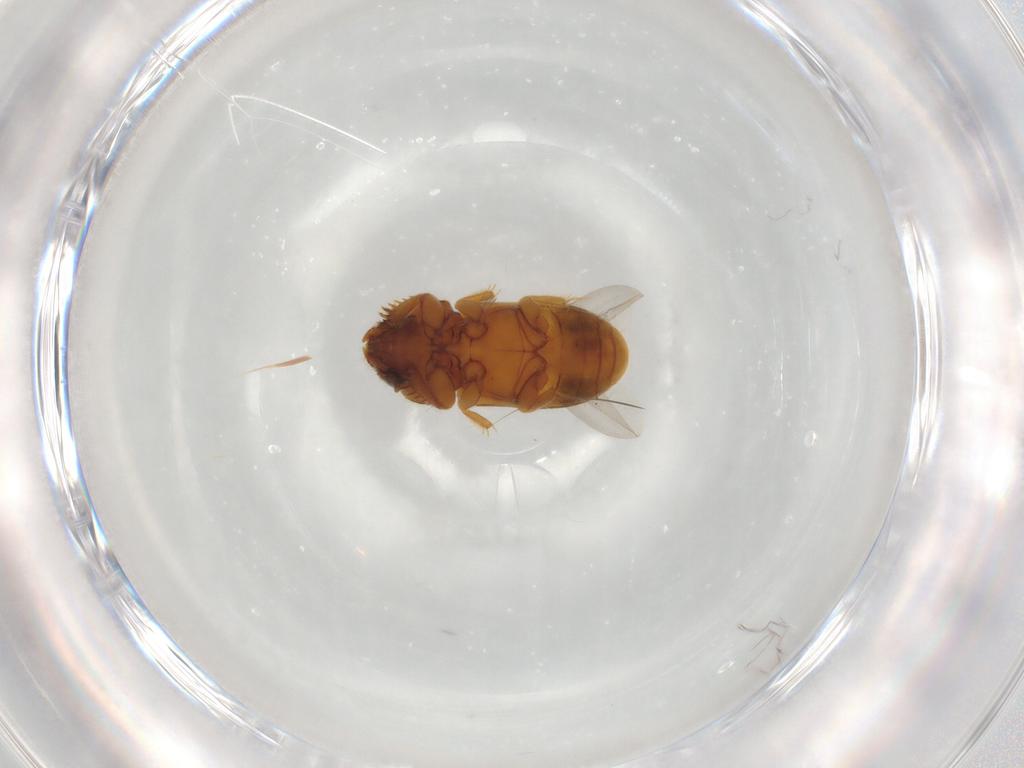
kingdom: Animalia
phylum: Arthropoda
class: Insecta
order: Coleoptera
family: Heteroceridae
